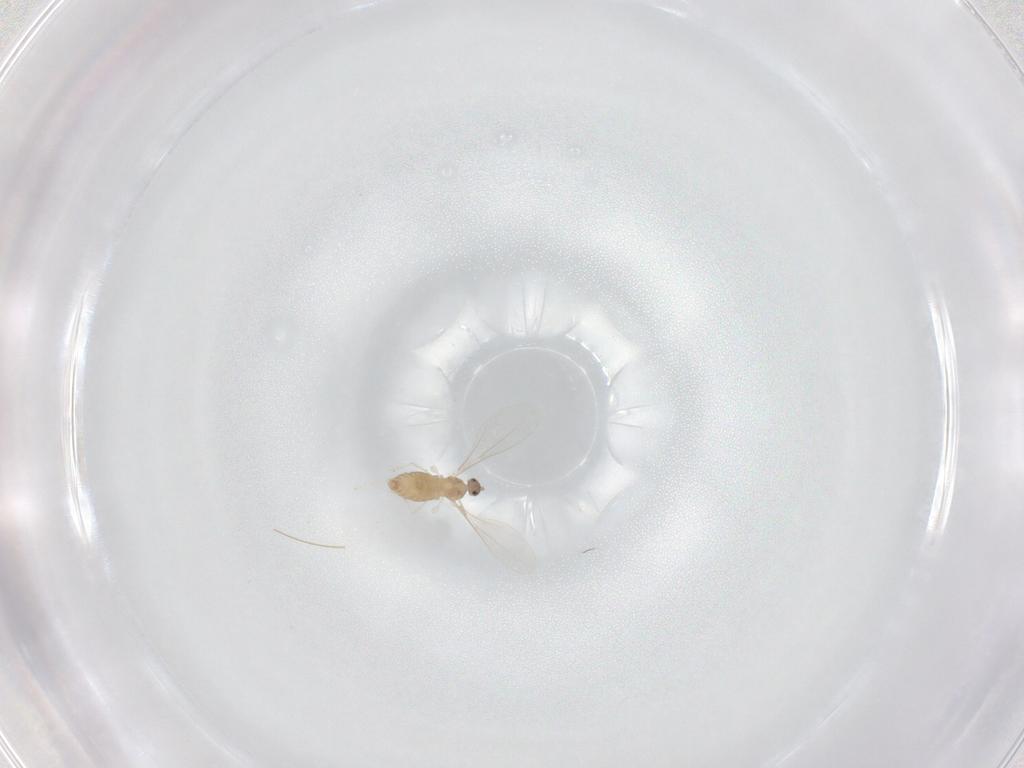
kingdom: Animalia
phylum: Arthropoda
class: Insecta
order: Diptera
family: Cecidomyiidae
